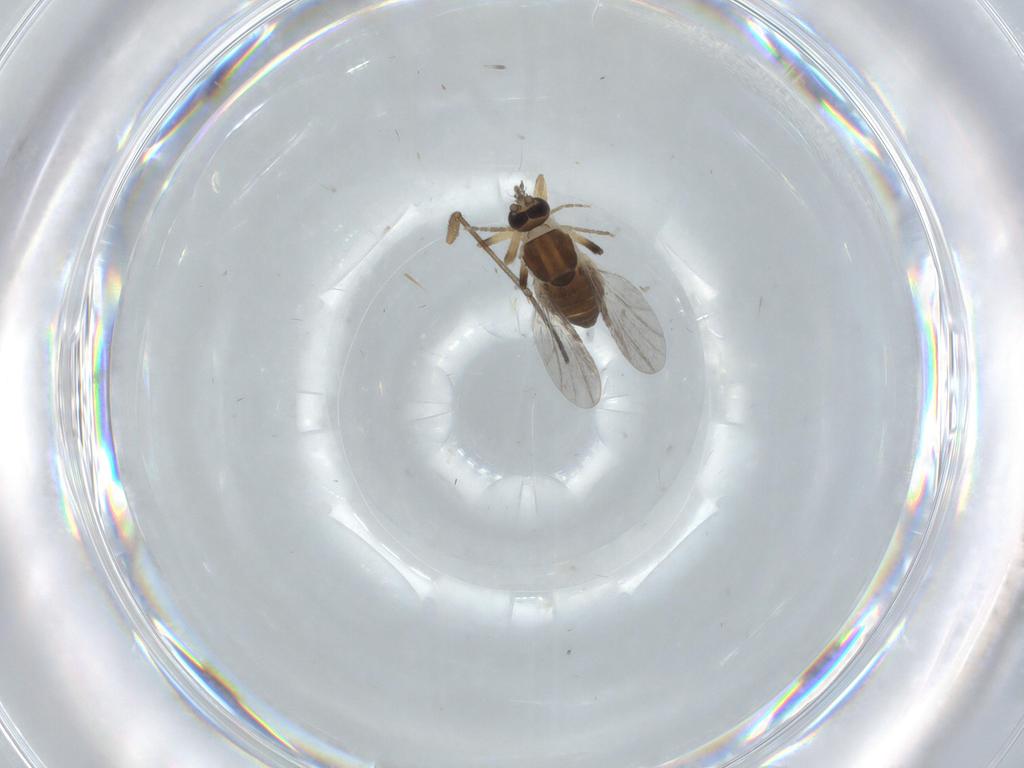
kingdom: Animalia
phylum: Arthropoda
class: Insecta
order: Diptera
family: Ceratopogonidae
